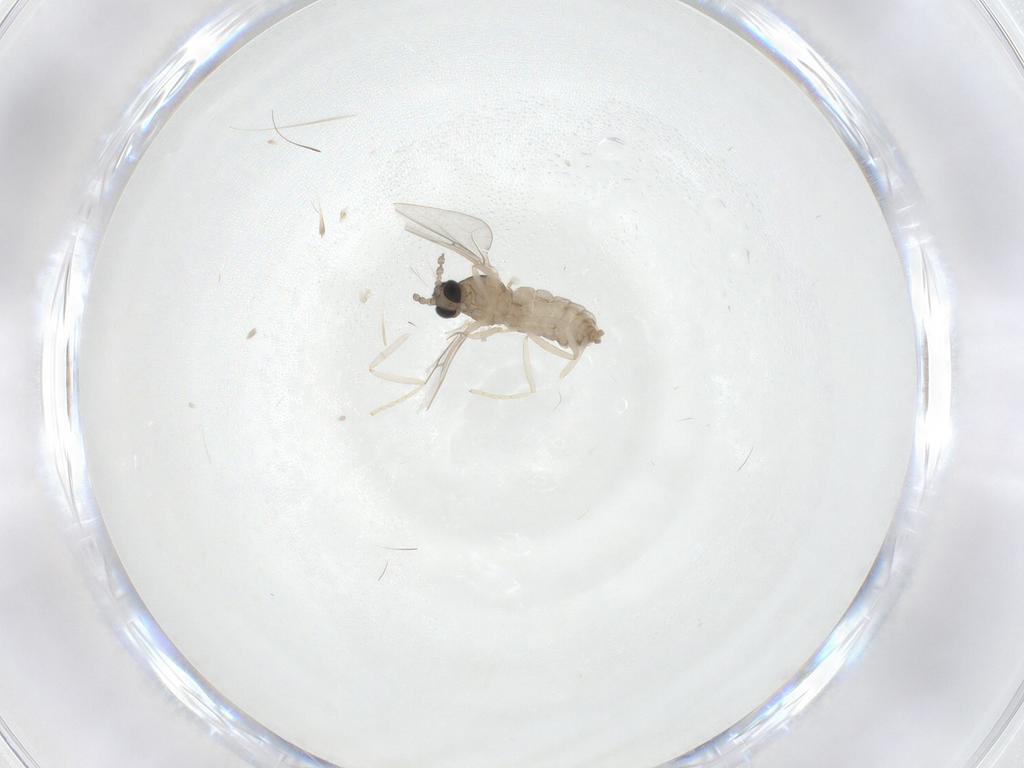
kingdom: Animalia
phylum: Arthropoda
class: Insecta
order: Diptera
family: Cecidomyiidae
